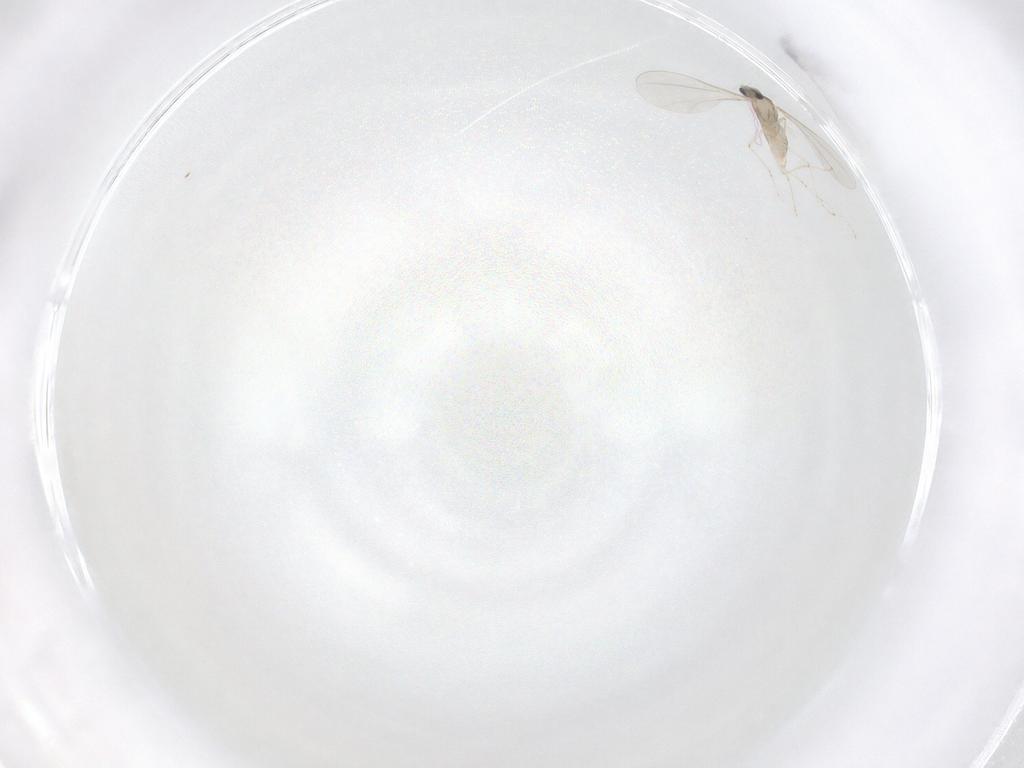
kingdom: Animalia
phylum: Arthropoda
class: Insecta
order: Diptera
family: Cecidomyiidae
